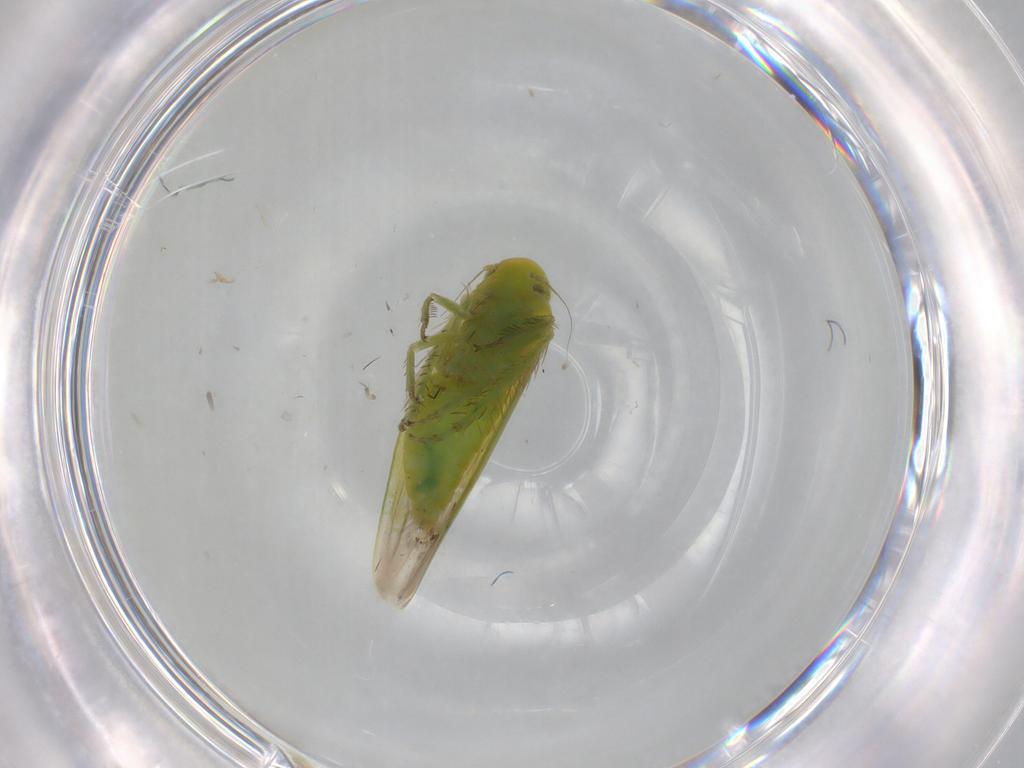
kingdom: Animalia
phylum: Arthropoda
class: Insecta
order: Hemiptera
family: Cicadellidae
